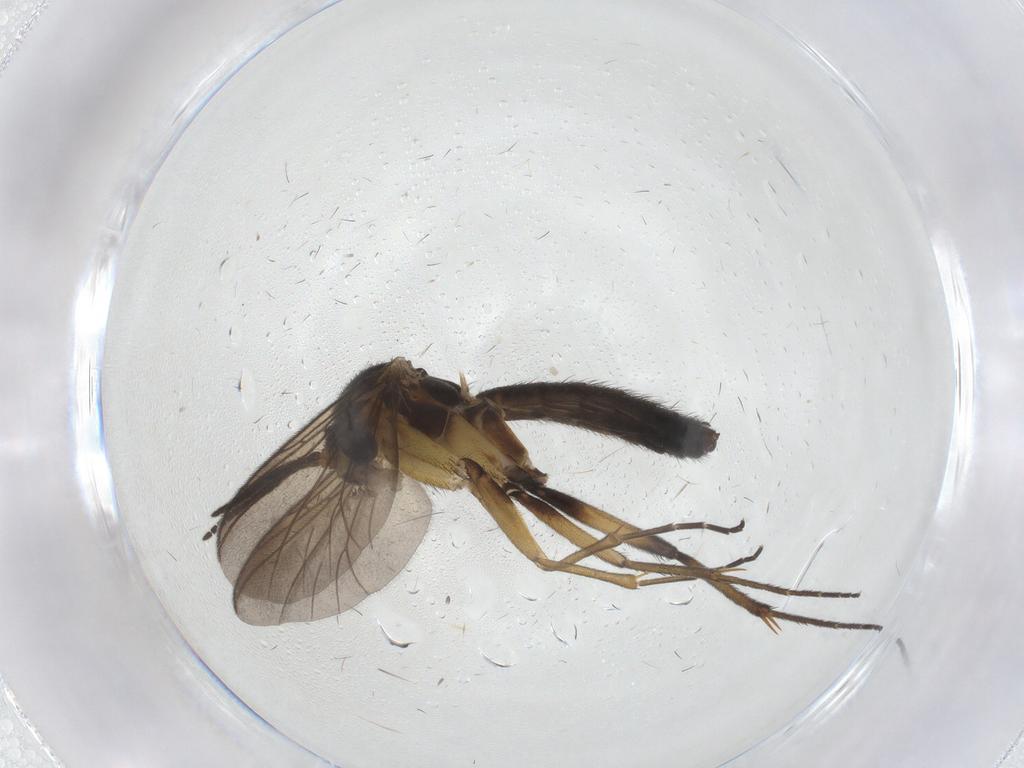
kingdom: Animalia
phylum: Arthropoda
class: Insecta
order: Diptera
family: Mycetophilidae
